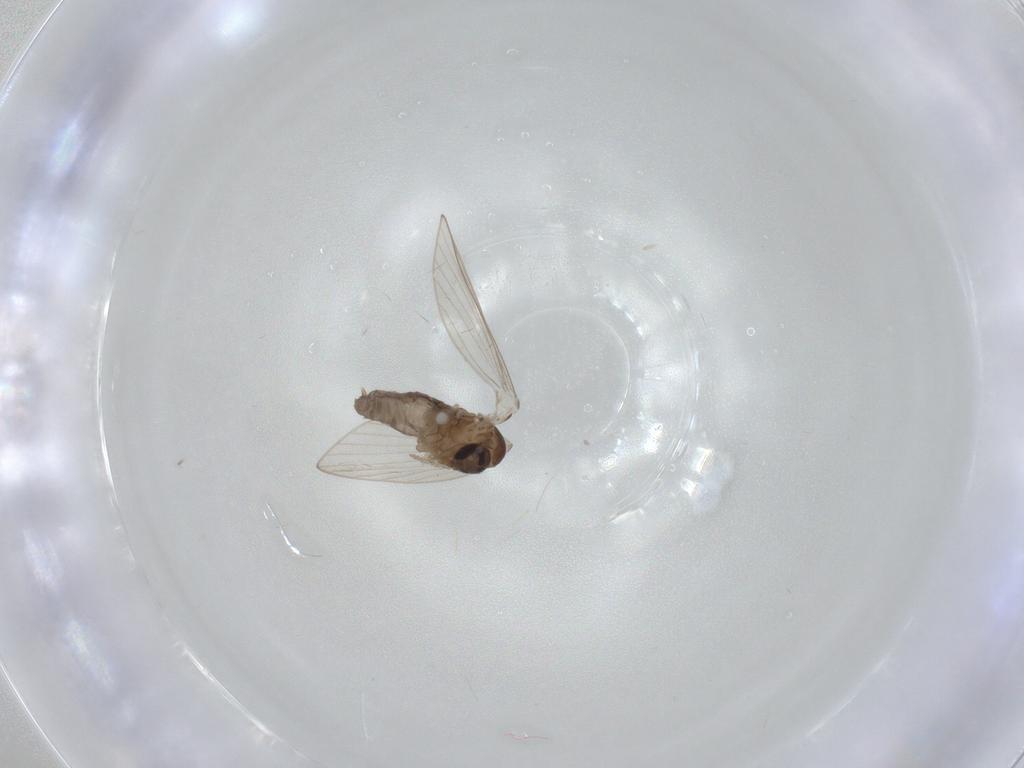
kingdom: Animalia
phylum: Arthropoda
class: Insecta
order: Diptera
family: Psychodidae
